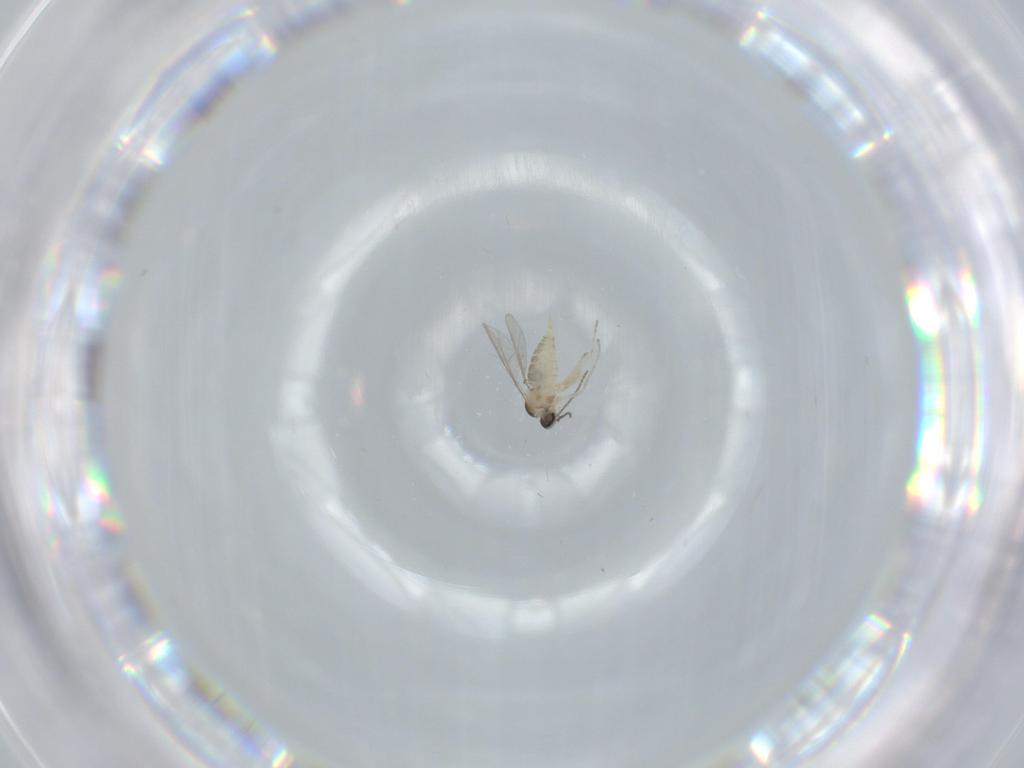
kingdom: Animalia
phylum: Arthropoda
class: Insecta
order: Diptera
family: Cecidomyiidae
